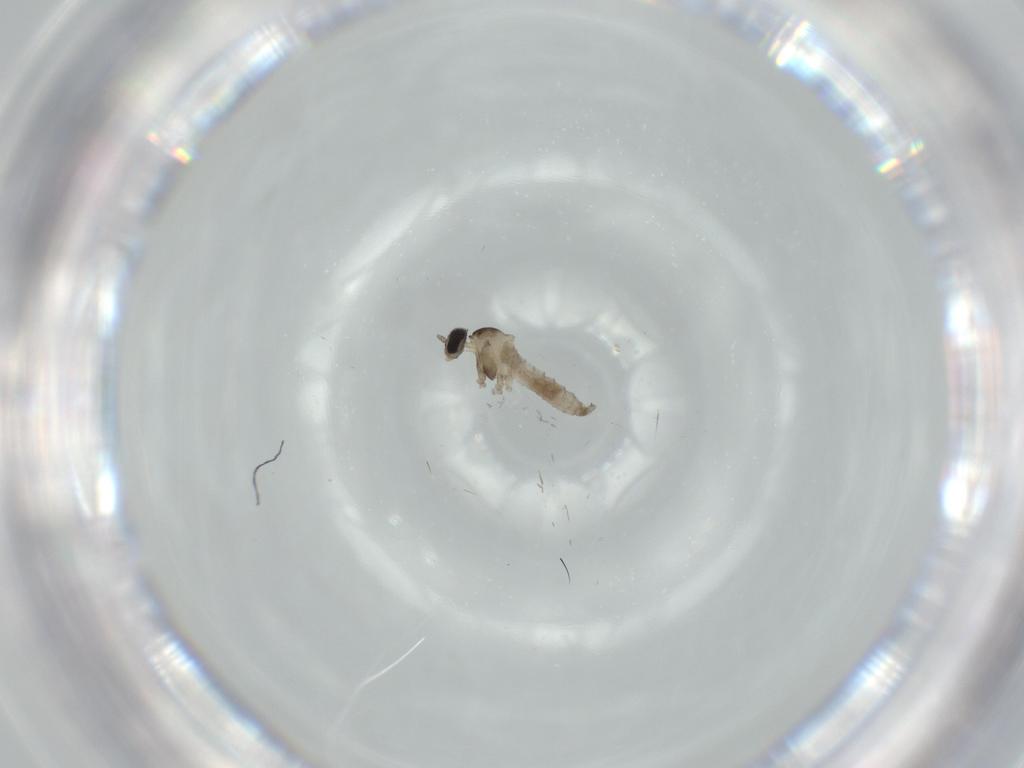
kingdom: Animalia
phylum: Arthropoda
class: Insecta
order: Diptera
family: Cecidomyiidae
